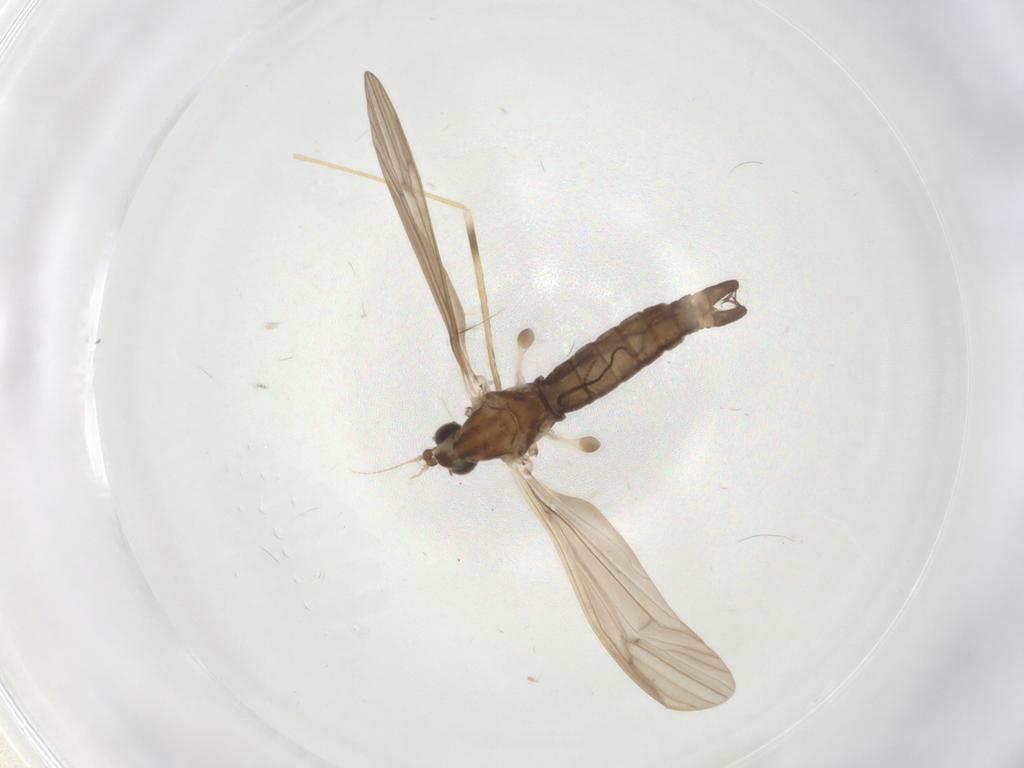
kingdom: Animalia
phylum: Arthropoda
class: Insecta
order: Diptera
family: Limoniidae
